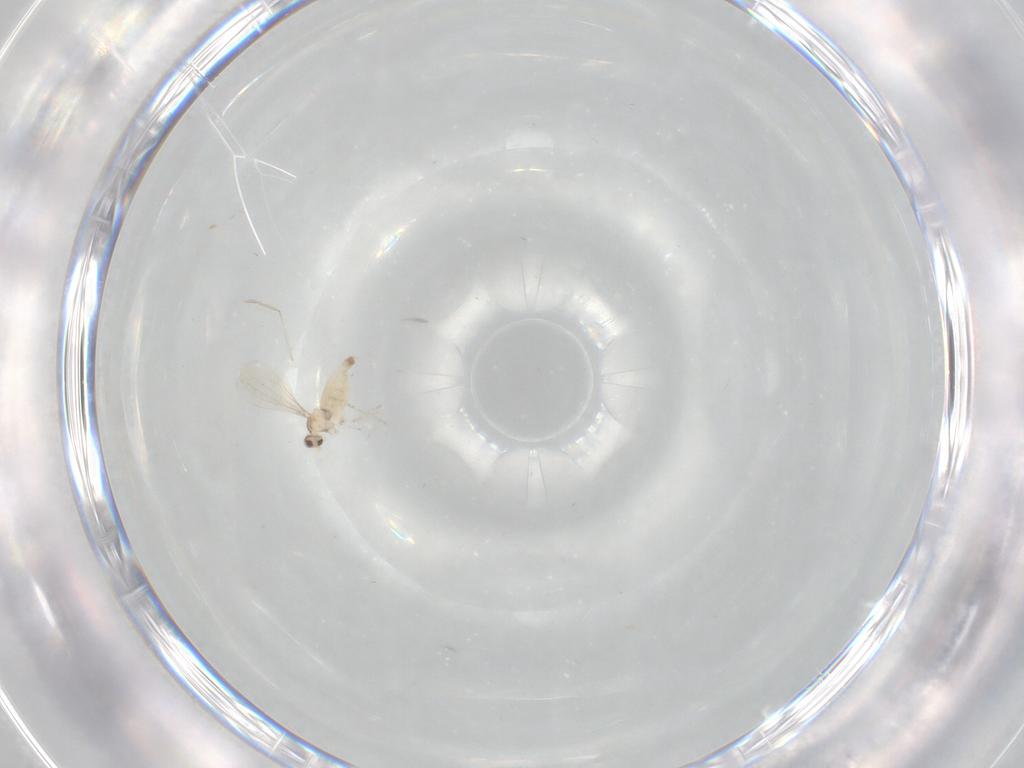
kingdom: Animalia
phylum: Arthropoda
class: Insecta
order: Diptera
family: Cecidomyiidae
